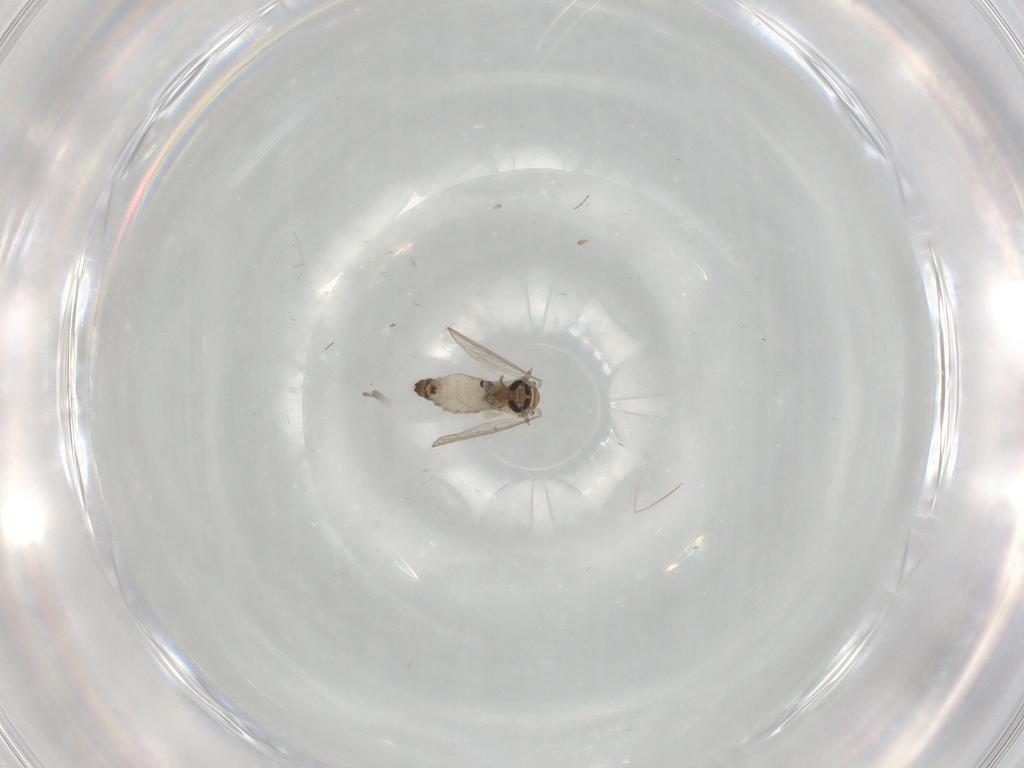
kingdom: Animalia
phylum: Arthropoda
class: Insecta
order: Diptera
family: Psychodidae
